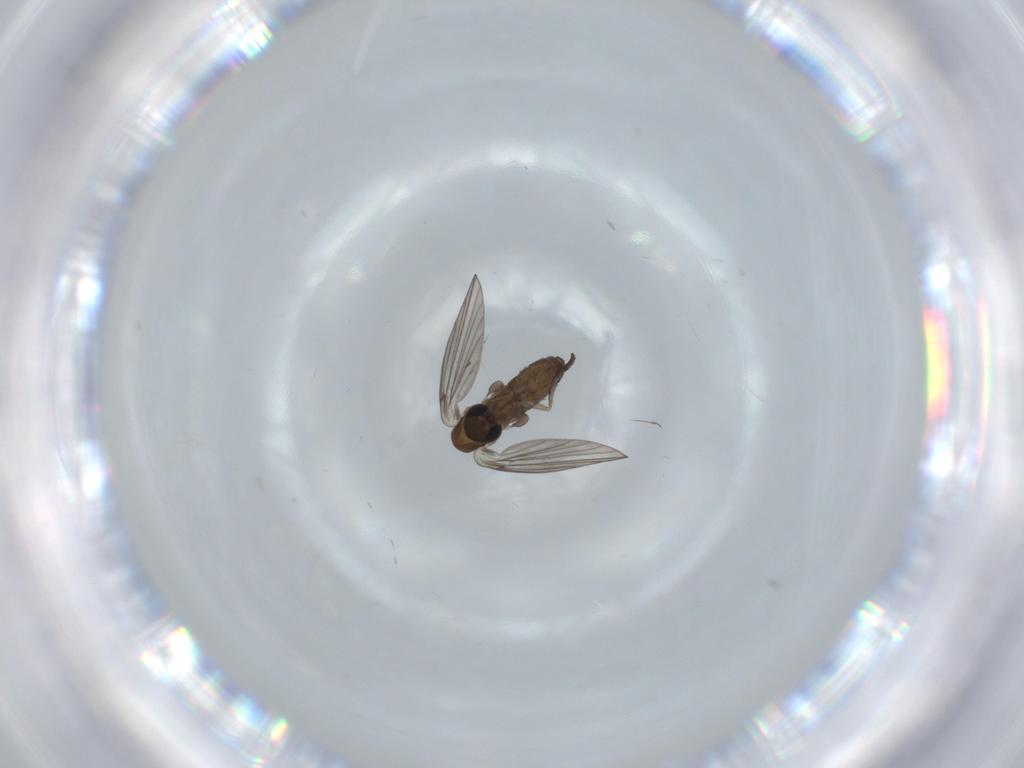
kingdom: Animalia
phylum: Arthropoda
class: Insecta
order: Diptera
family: Psychodidae
